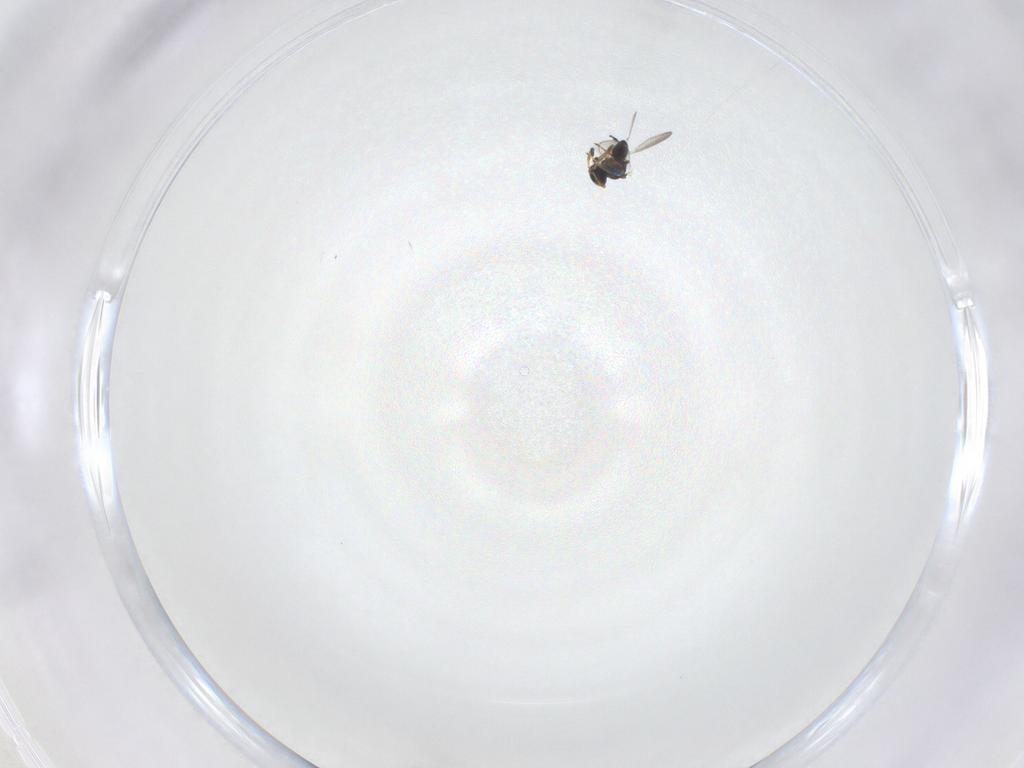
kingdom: Animalia
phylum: Arthropoda
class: Insecta
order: Hymenoptera
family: Platygastridae
